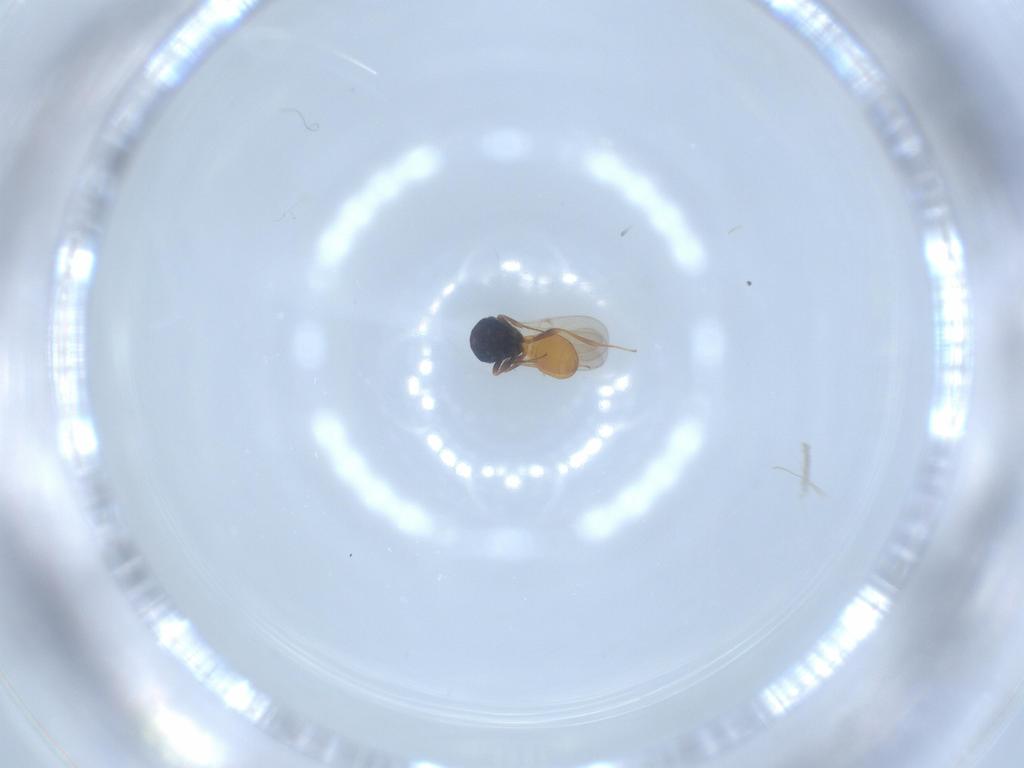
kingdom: Animalia
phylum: Arthropoda
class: Insecta
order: Hymenoptera
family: Scelionidae
